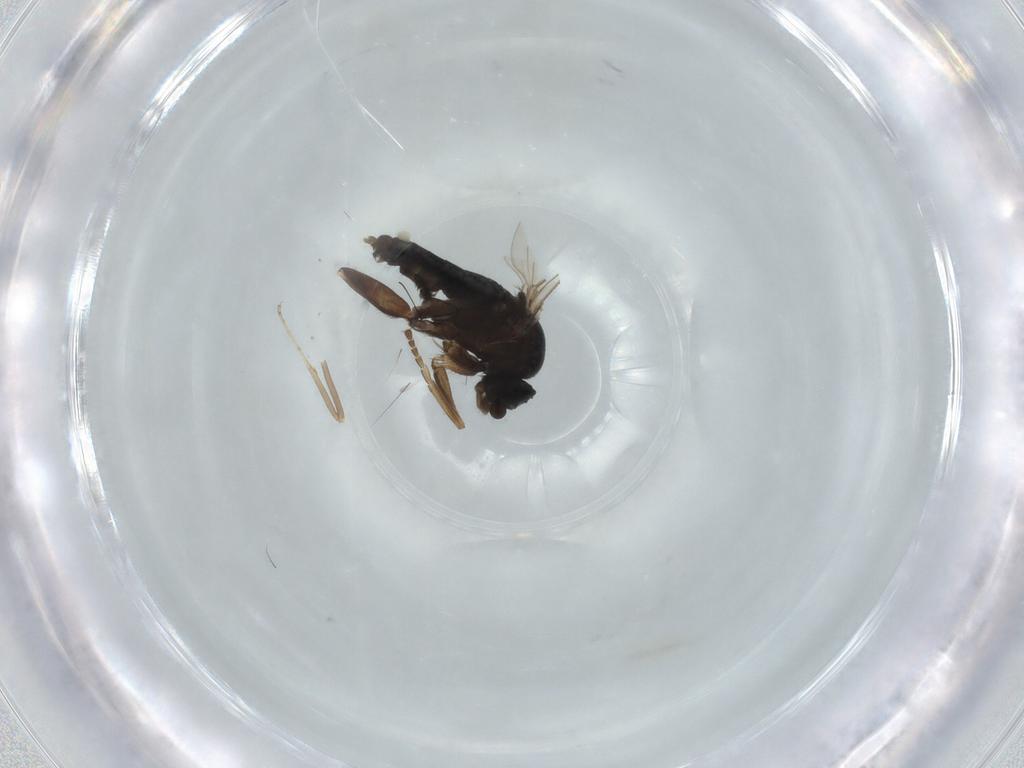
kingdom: Animalia
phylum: Arthropoda
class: Insecta
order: Diptera
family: Phoridae
